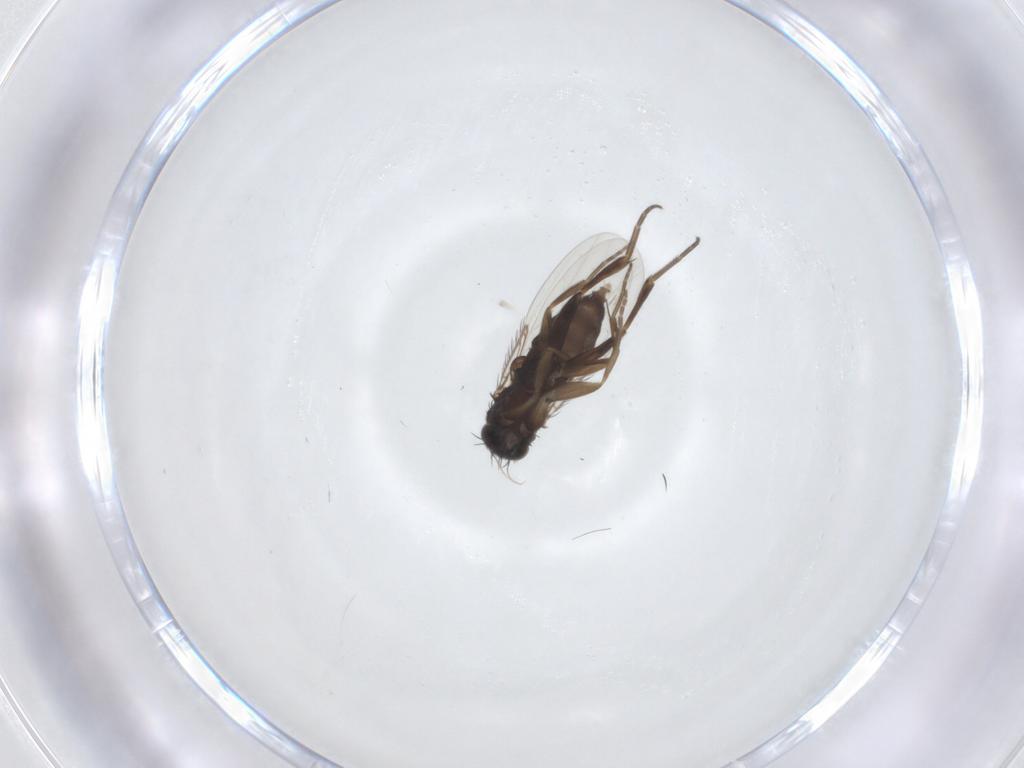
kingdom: Animalia
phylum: Arthropoda
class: Insecta
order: Diptera
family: Phoridae
